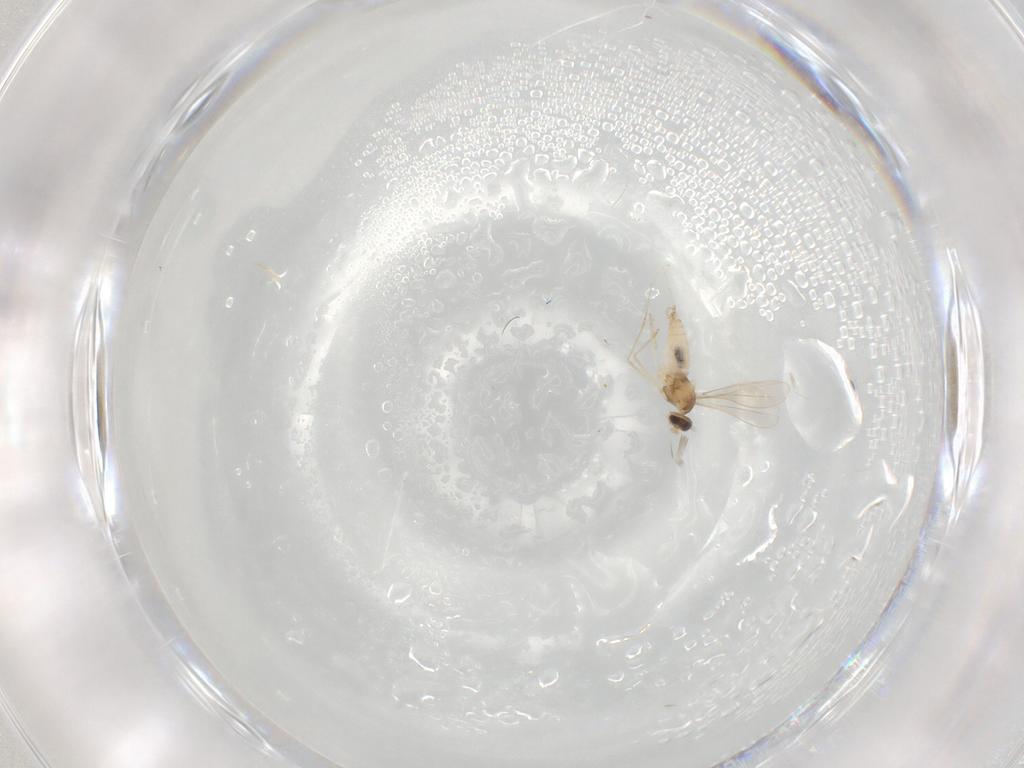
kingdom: Animalia
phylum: Arthropoda
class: Insecta
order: Diptera
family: Cecidomyiidae
